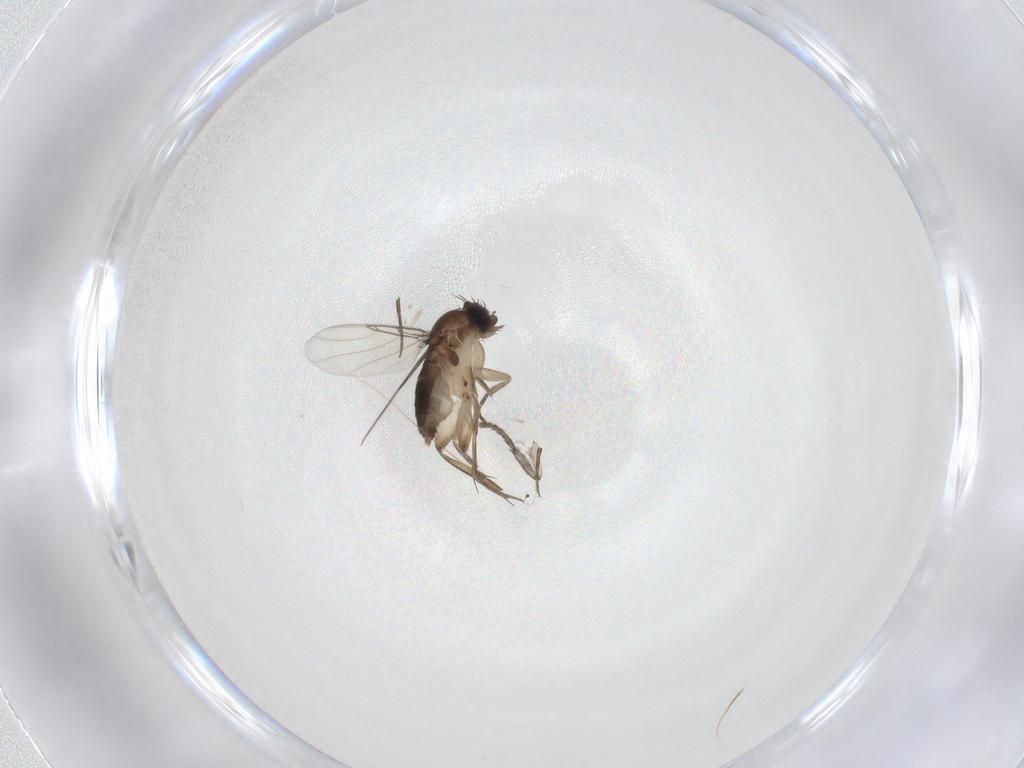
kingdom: Animalia
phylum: Arthropoda
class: Insecta
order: Diptera
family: Phoridae
